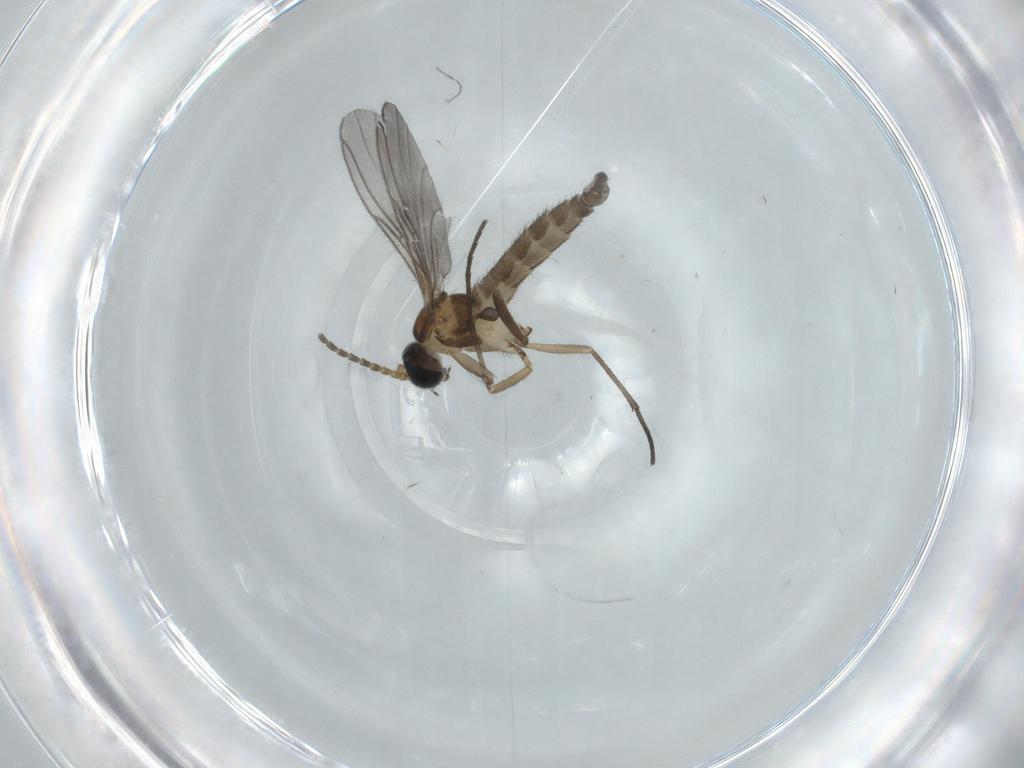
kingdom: Animalia
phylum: Arthropoda
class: Insecta
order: Diptera
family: Sciaridae
